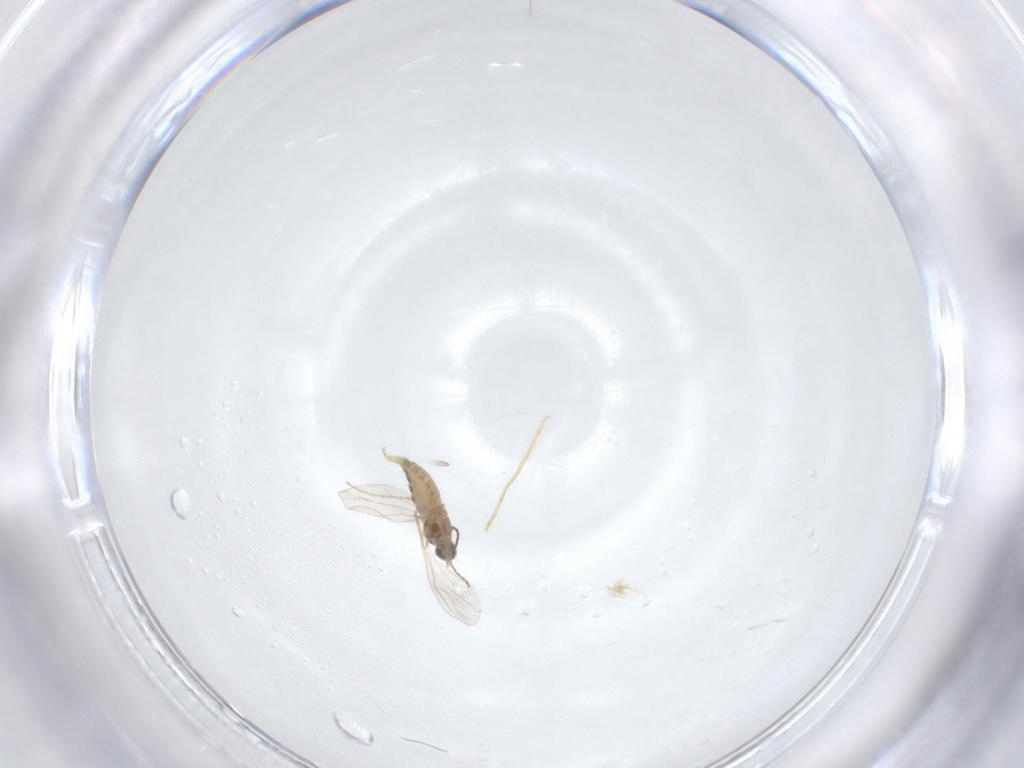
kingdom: Animalia
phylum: Arthropoda
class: Insecta
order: Diptera
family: Cecidomyiidae
